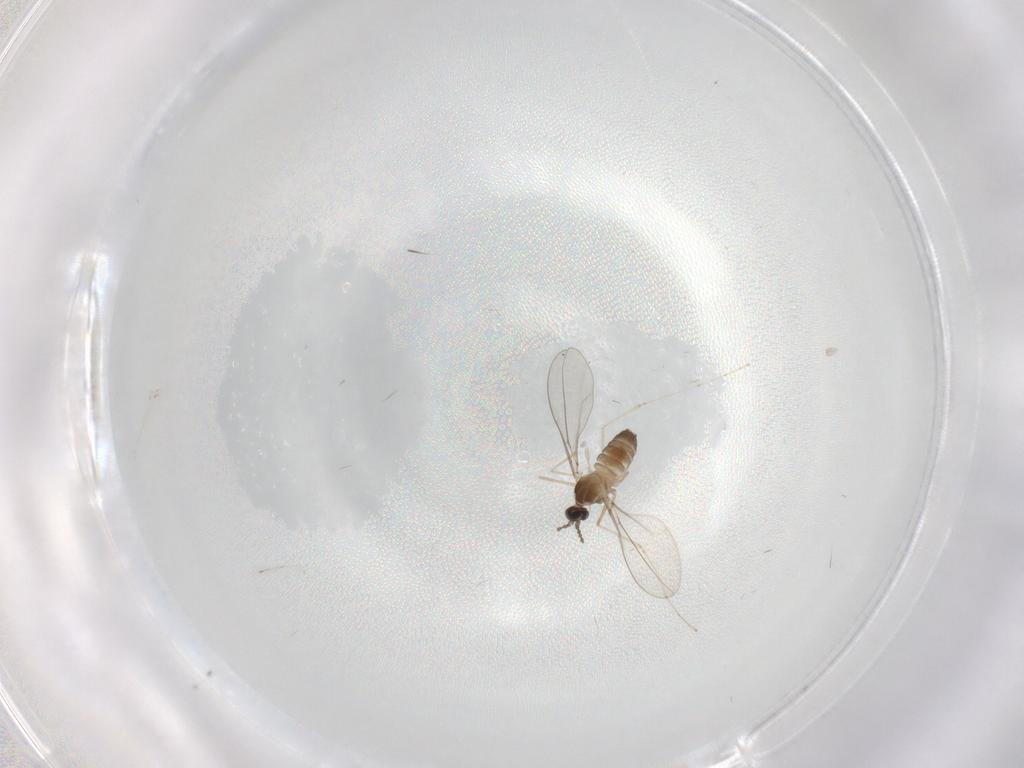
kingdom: Animalia
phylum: Arthropoda
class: Insecta
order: Diptera
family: Cecidomyiidae
